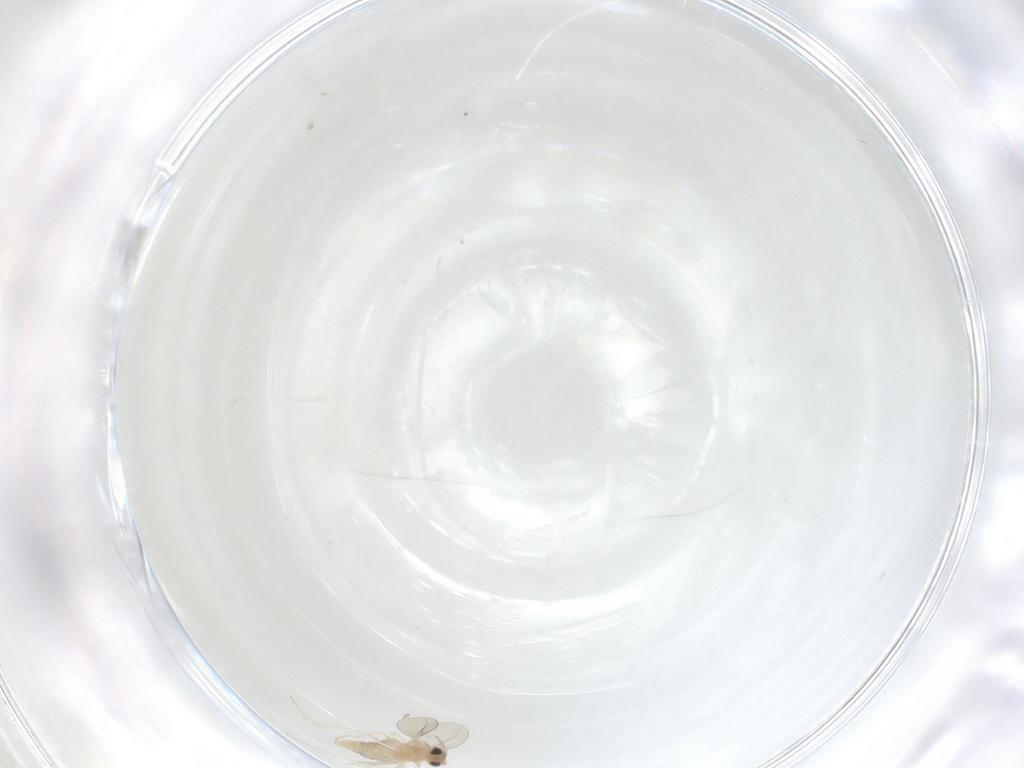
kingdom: Animalia
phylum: Arthropoda
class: Insecta
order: Diptera
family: Cecidomyiidae
